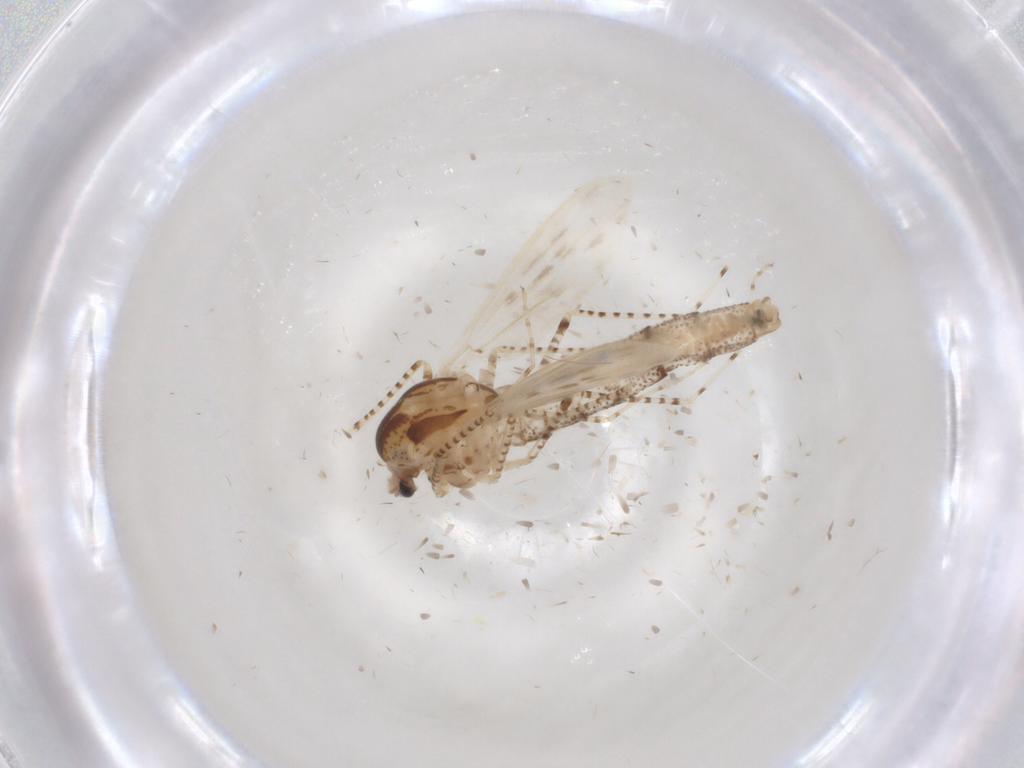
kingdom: Animalia
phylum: Arthropoda
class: Insecta
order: Diptera
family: Chaoboridae
